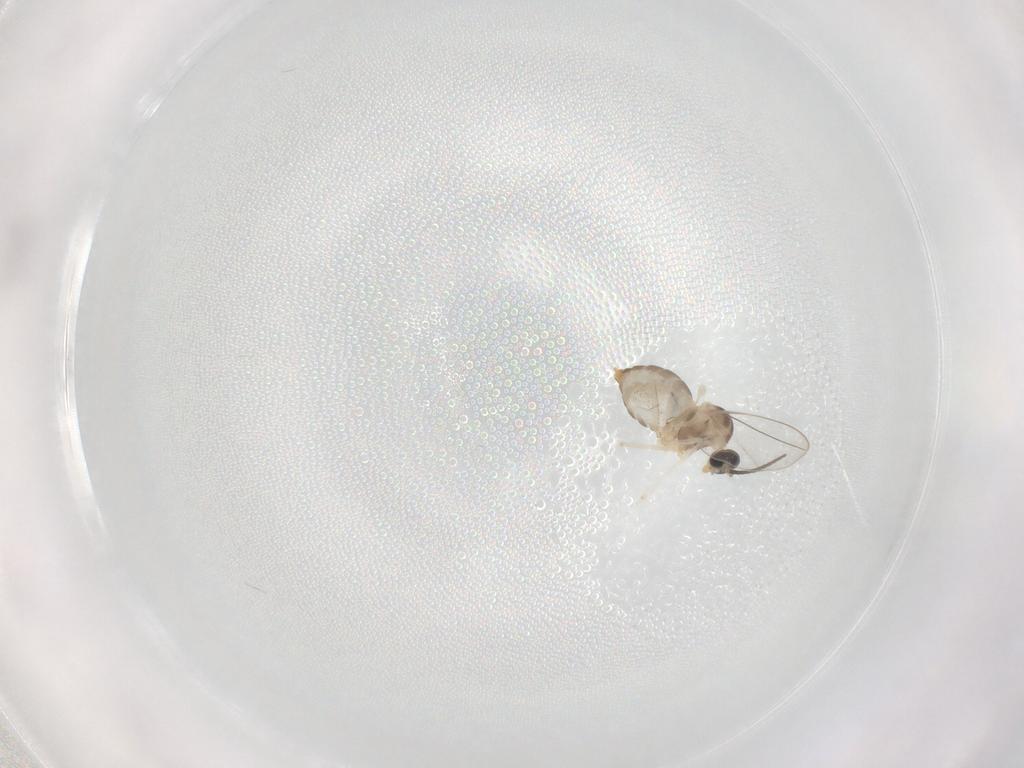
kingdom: Animalia
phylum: Arthropoda
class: Insecta
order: Diptera
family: Cecidomyiidae
